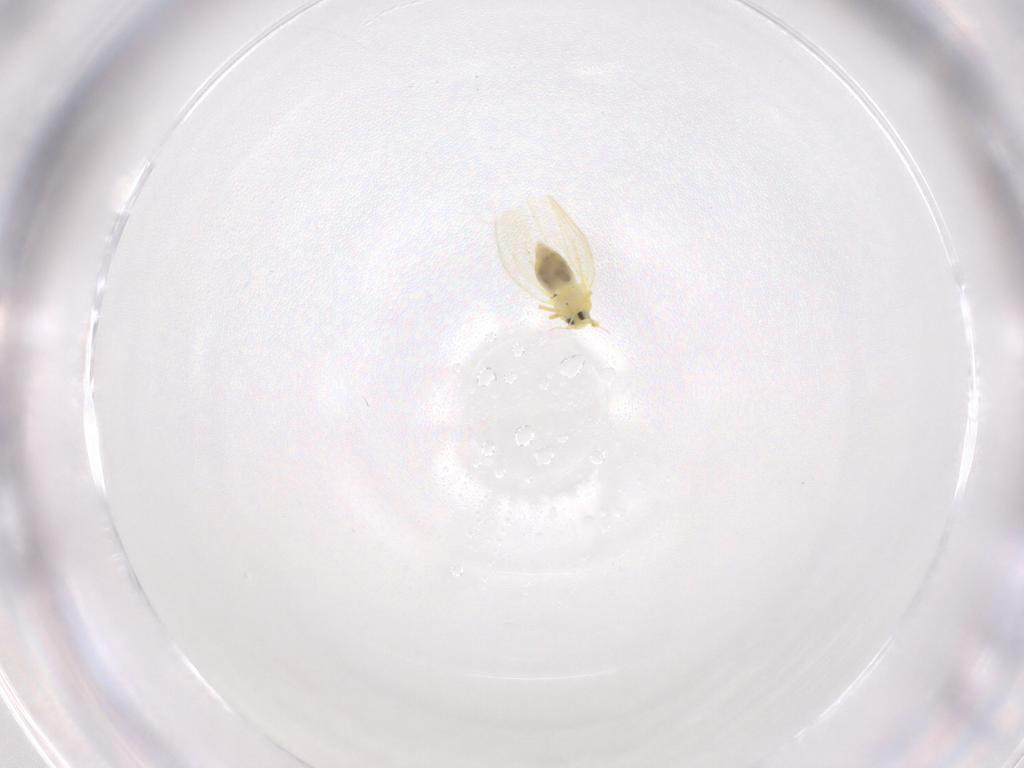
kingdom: Animalia
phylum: Arthropoda
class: Insecta
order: Hemiptera
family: Aleyrodidae
